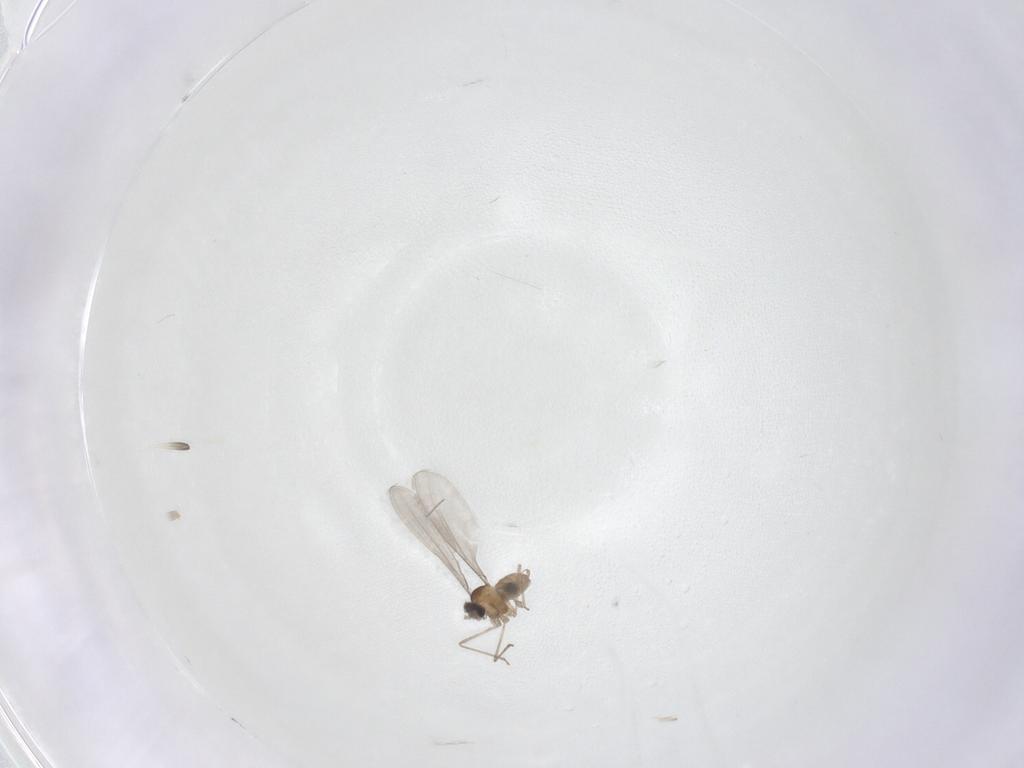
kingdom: Animalia
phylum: Arthropoda
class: Insecta
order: Diptera
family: Cecidomyiidae
